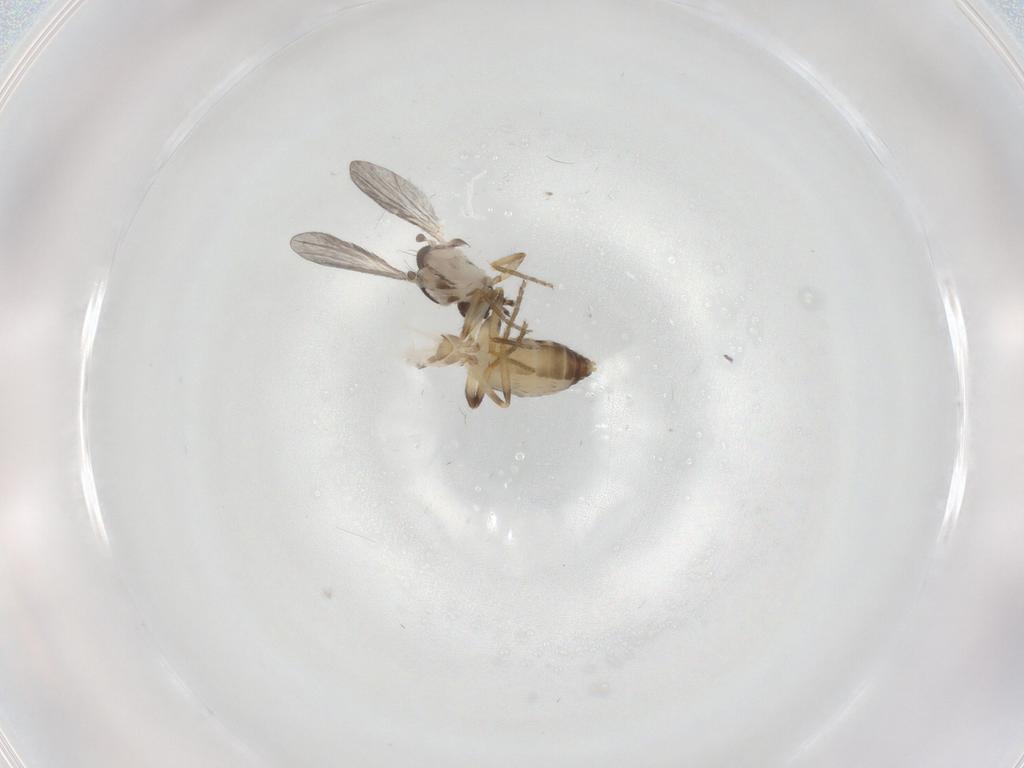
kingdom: Animalia
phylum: Arthropoda
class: Insecta
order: Diptera
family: Ceratopogonidae
